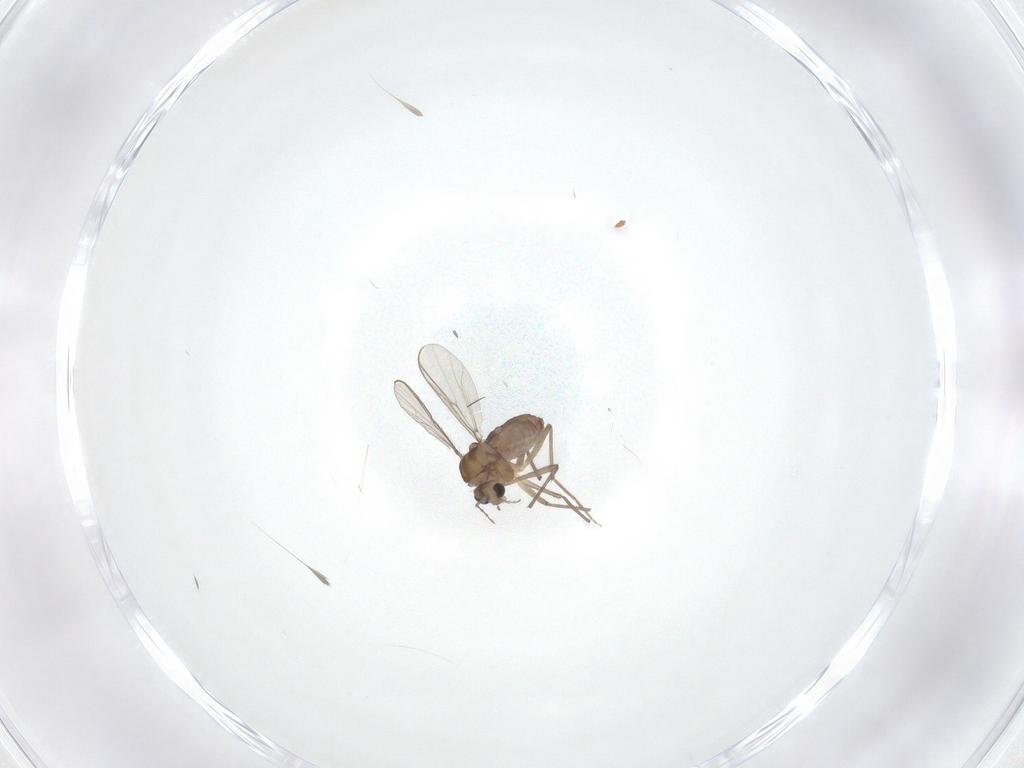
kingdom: Animalia
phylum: Arthropoda
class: Insecta
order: Diptera
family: Chironomidae
